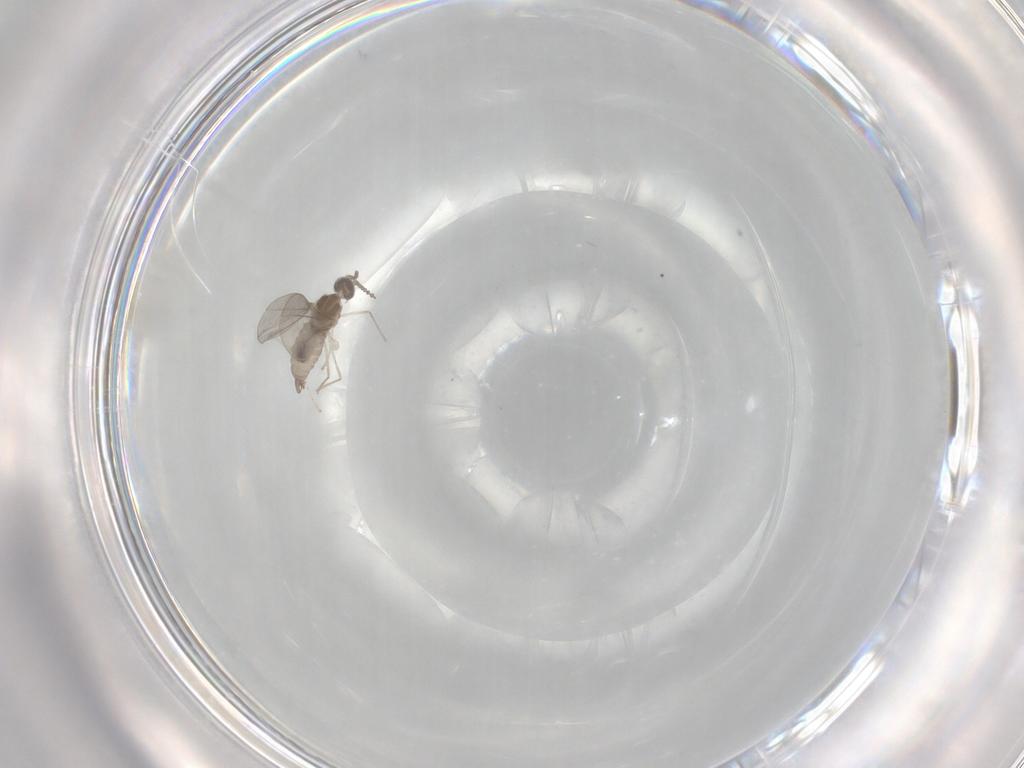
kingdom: Animalia
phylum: Arthropoda
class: Insecta
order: Diptera
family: Cecidomyiidae
